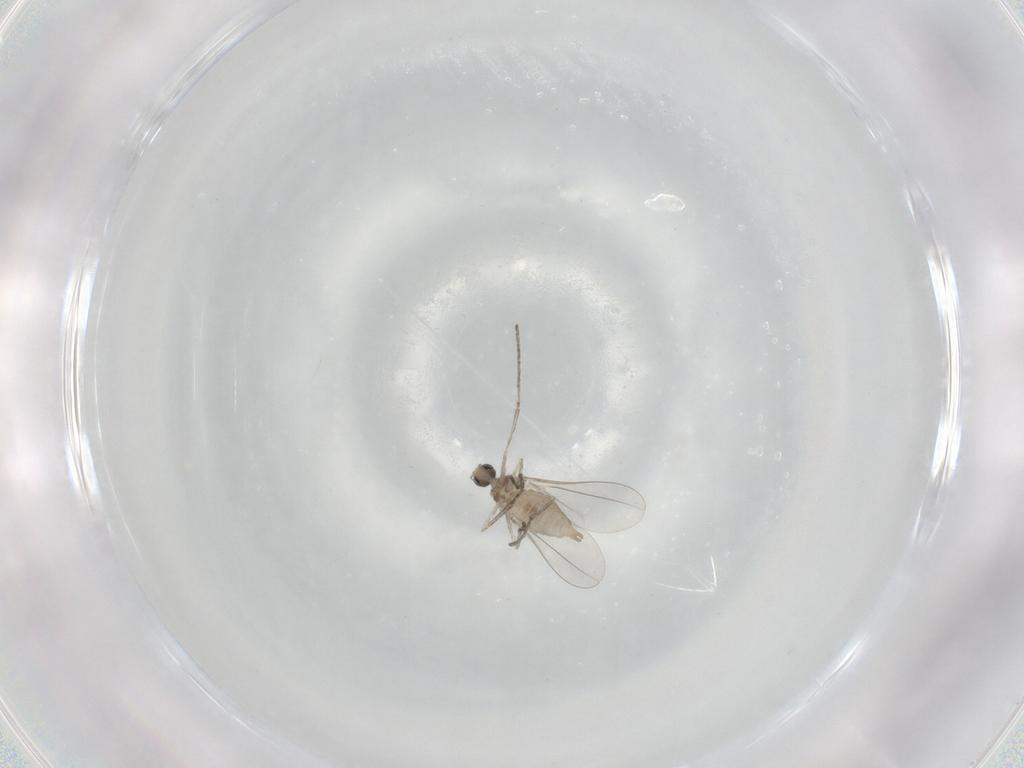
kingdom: Animalia
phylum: Arthropoda
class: Insecta
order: Diptera
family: Cecidomyiidae
